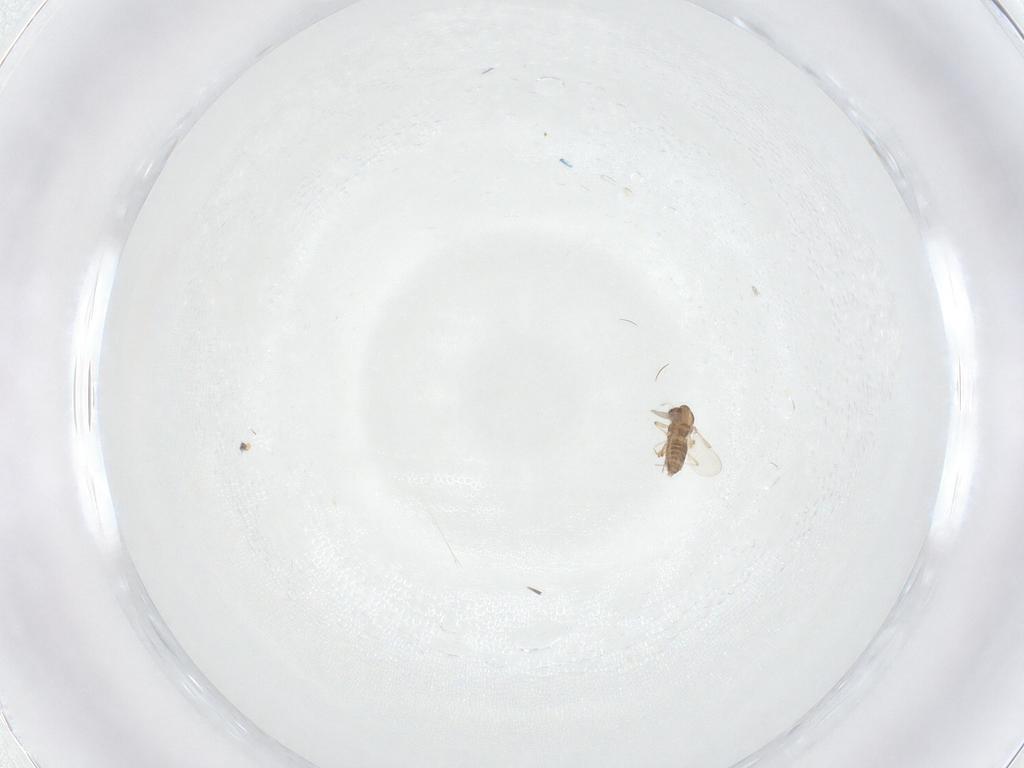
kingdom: Animalia
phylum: Arthropoda
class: Insecta
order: Diptera
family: Chironomidae
